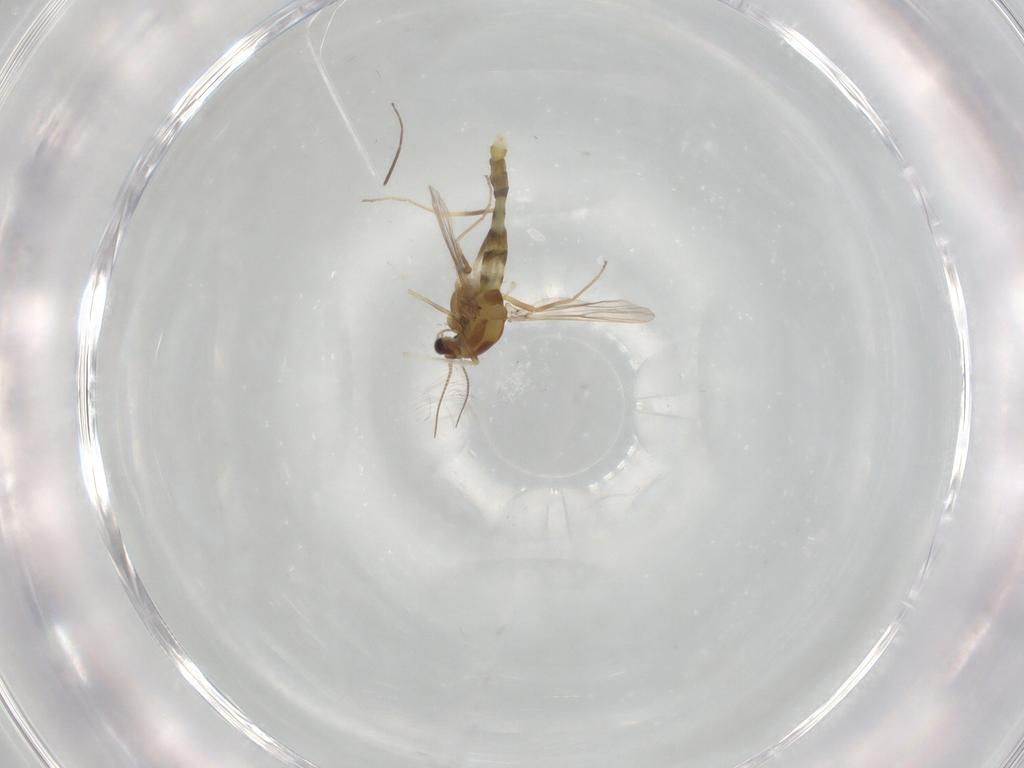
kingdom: Animalia
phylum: Arthropoda
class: Insecta
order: Diptera
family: Chironomidae
